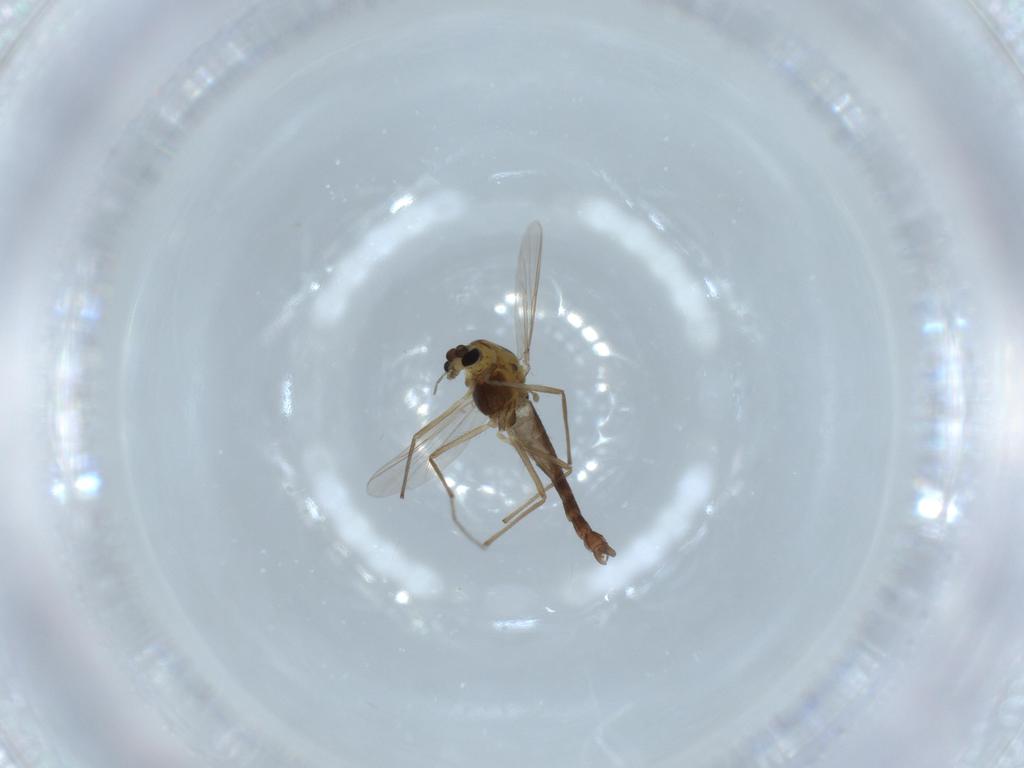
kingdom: Animalia
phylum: Arthropoda
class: Insecta
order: Diptera
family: Chironomidae
